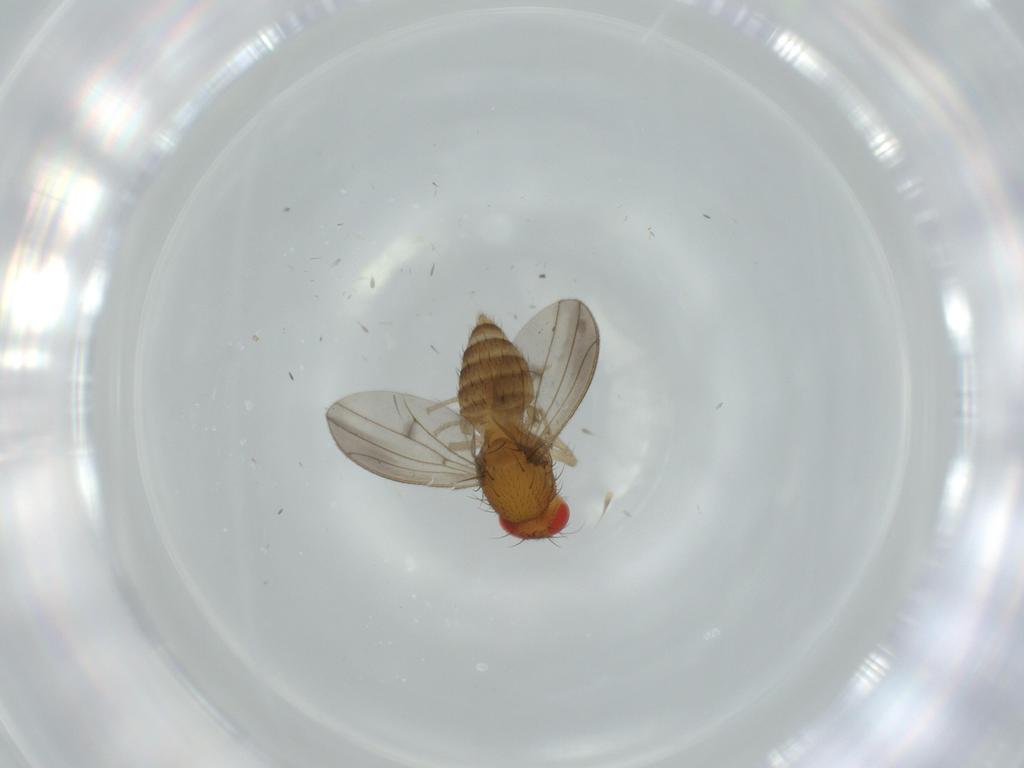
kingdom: Animalia
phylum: Arthropoda
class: Insecta
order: Diptera
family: Drosophilidae
